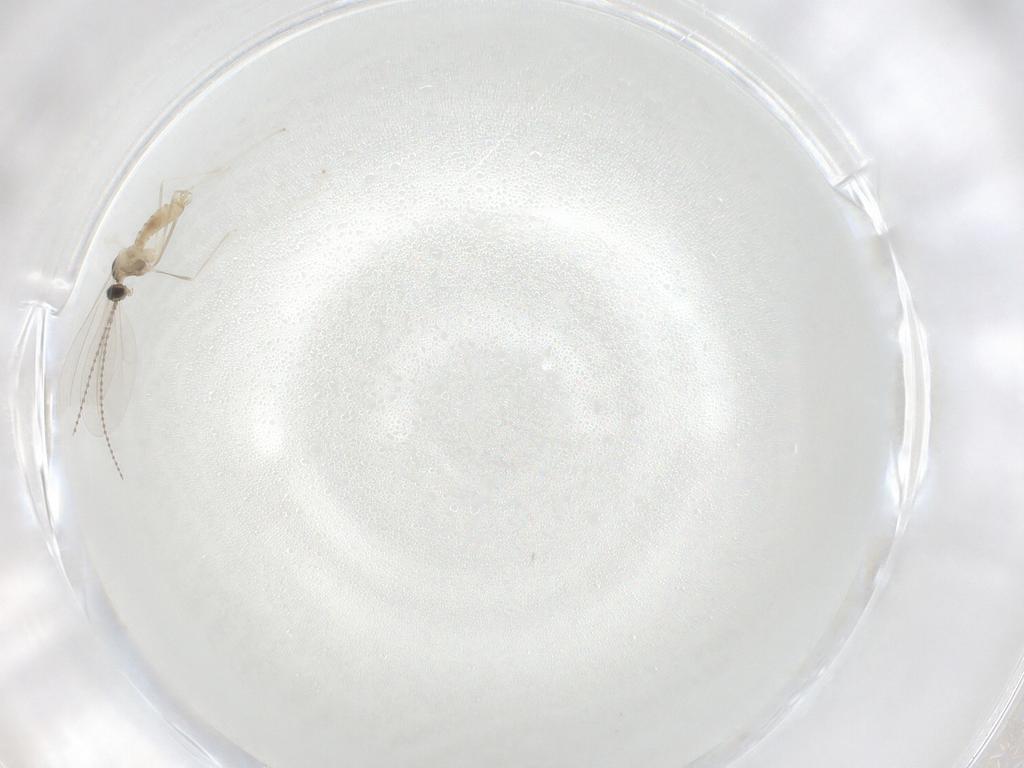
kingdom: Animalia
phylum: Arthropoda
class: Insecta
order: Diptera
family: Cecidomyiidae
